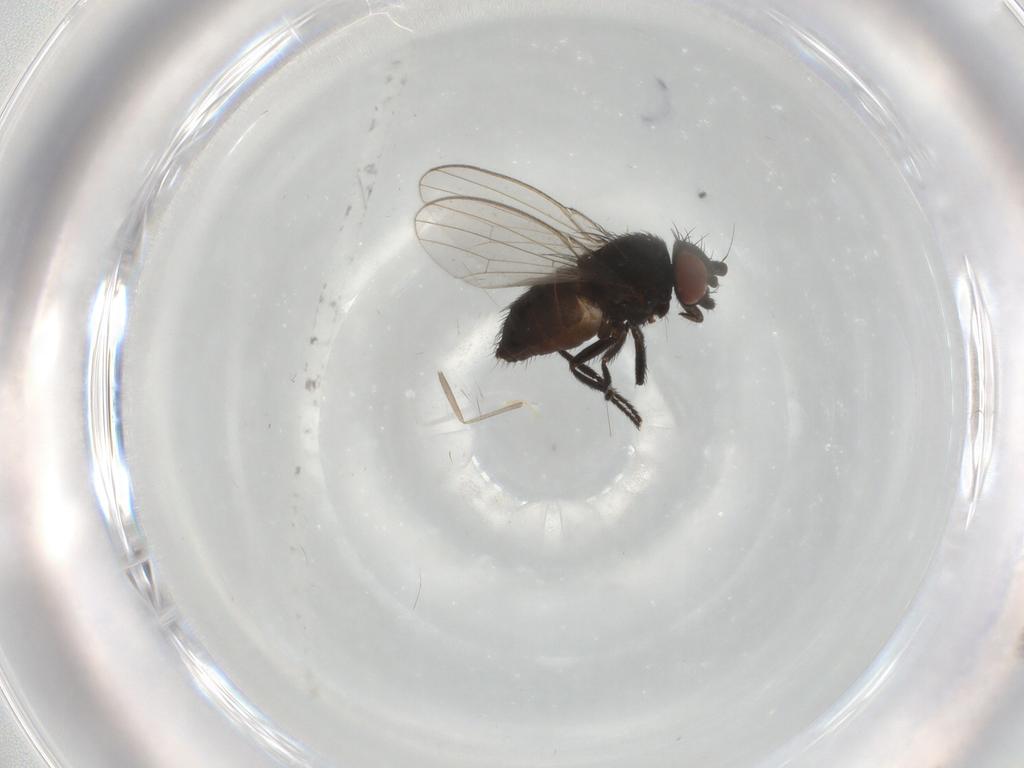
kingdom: Animalia
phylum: Arthropoda
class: Insecta
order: Diptera
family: Milichiidae
